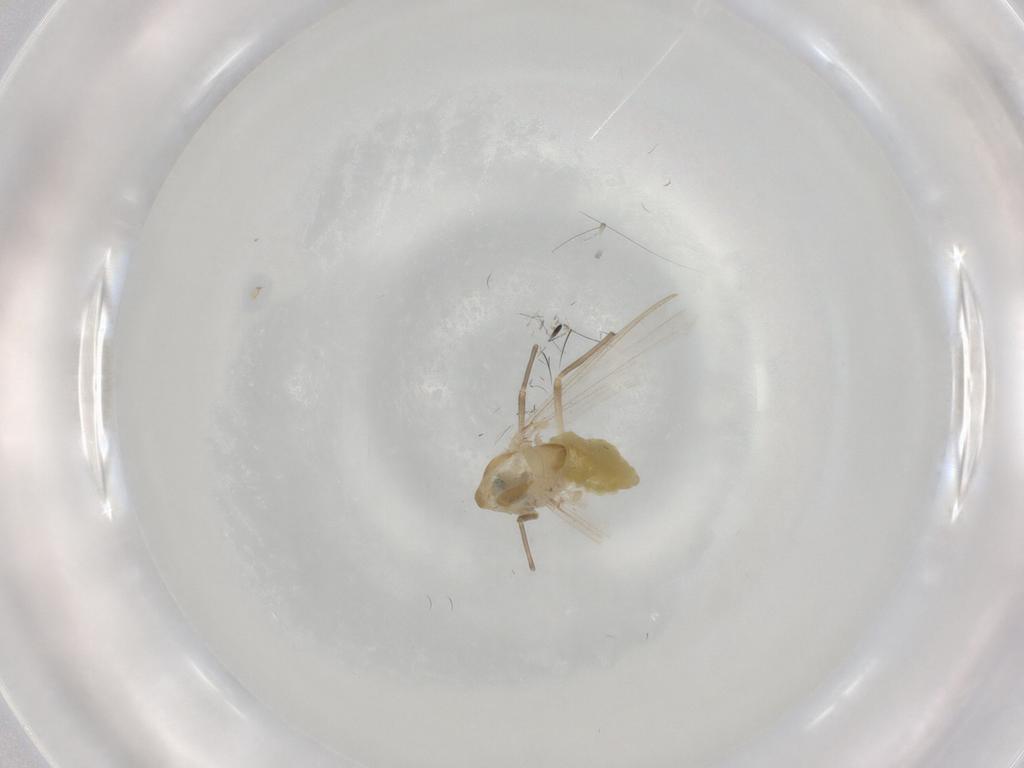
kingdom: Animalia
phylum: Arthropoda
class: Insecta
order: Diptera
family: Chironomidae
